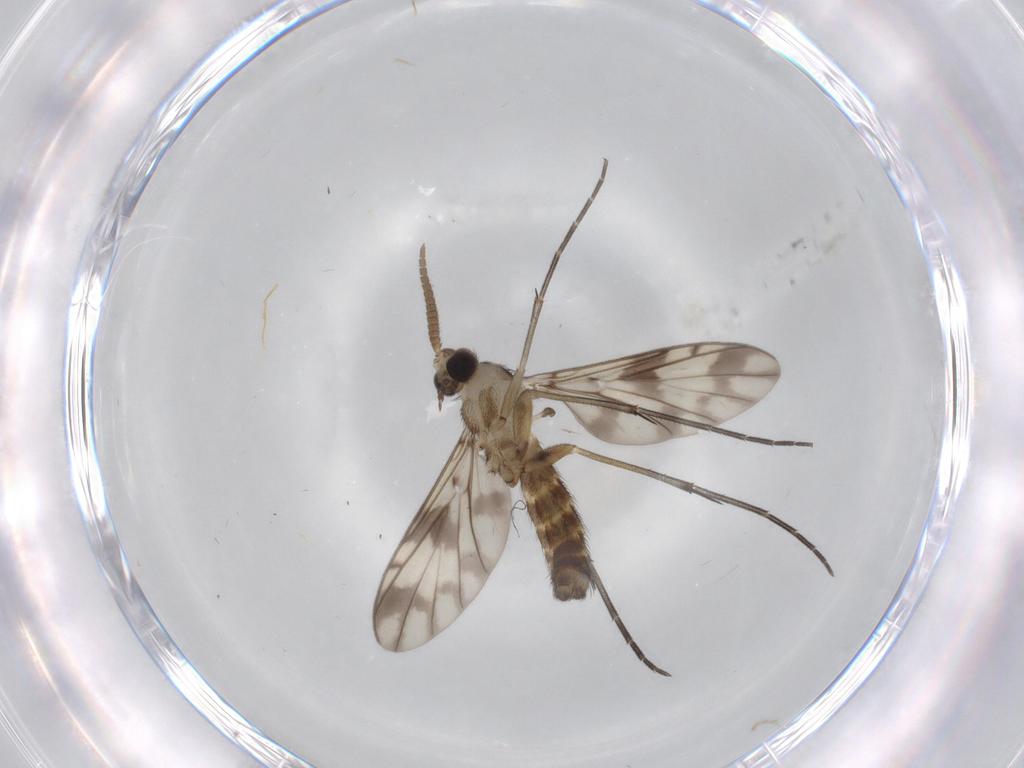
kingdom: Animalia
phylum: Arthropoda
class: Insecta
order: Diptera
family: Keroplatidae
